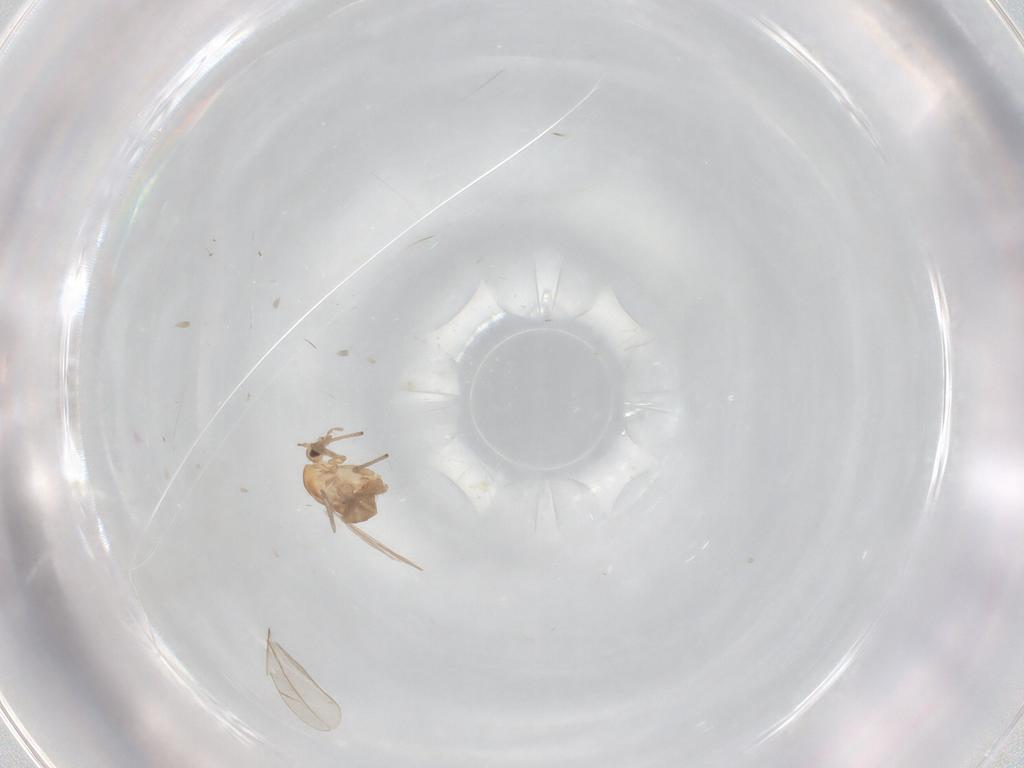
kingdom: Animalia
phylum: Arthropoda
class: Insecta
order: Diptera
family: Chironomidae
